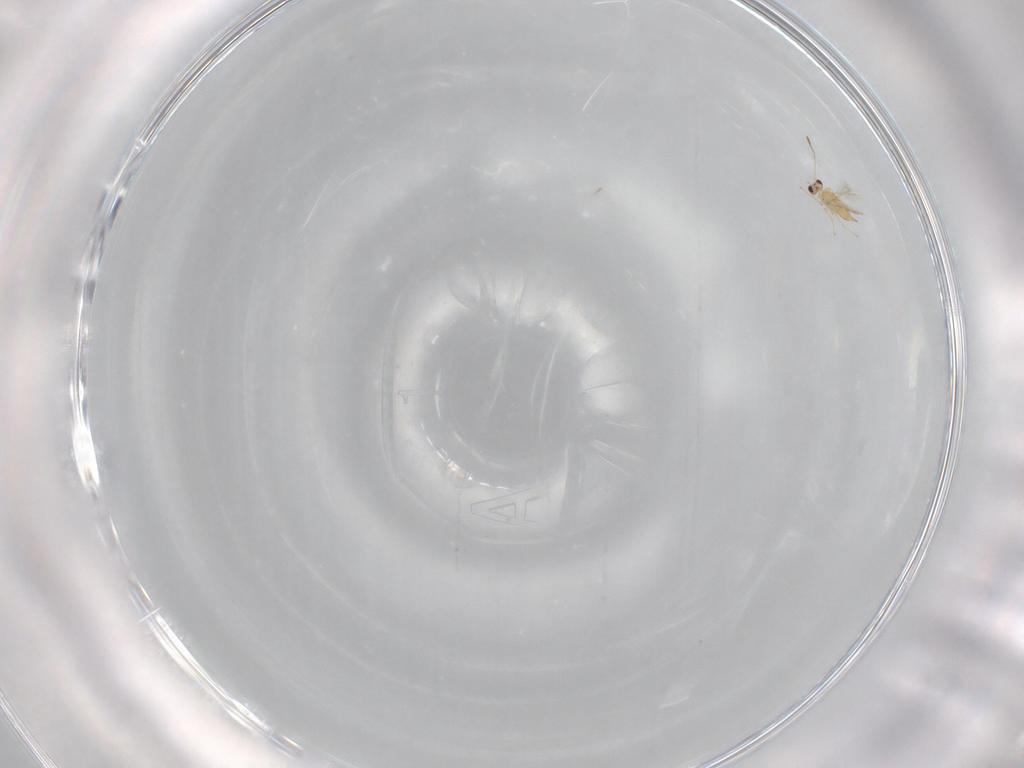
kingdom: Animalia
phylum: Arthropoda
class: Insecta
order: Hymenoptera
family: Mymaridae
